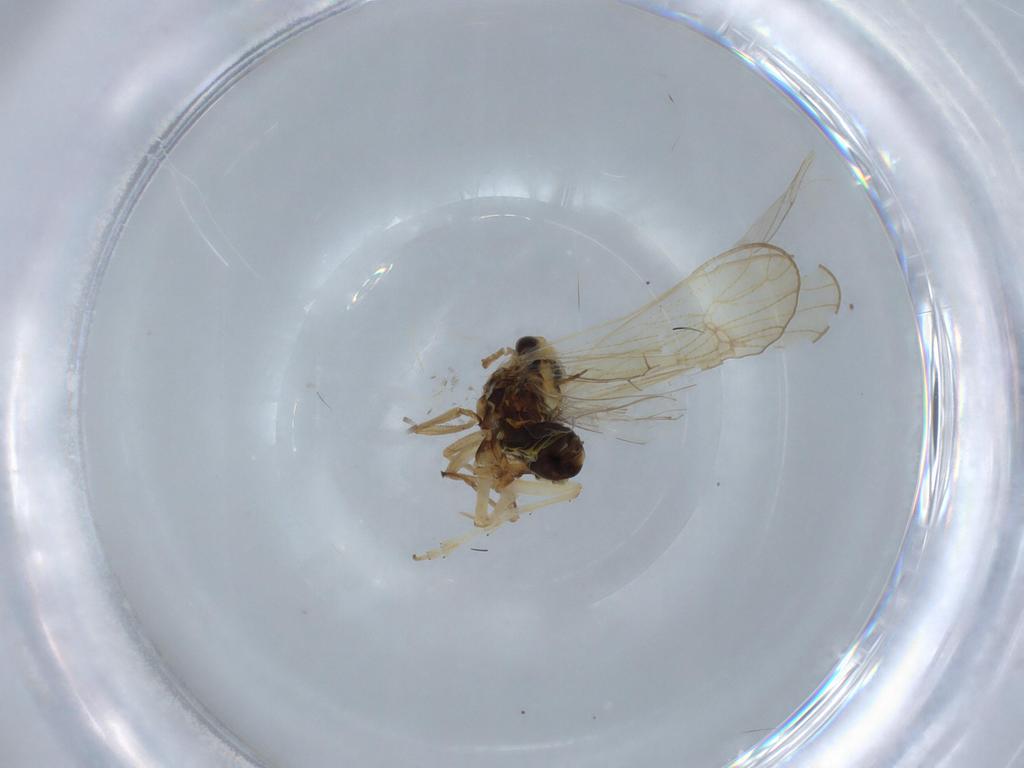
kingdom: Animalia
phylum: Arthropoda
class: Insecta
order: Hemiptera
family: Delphacidae
